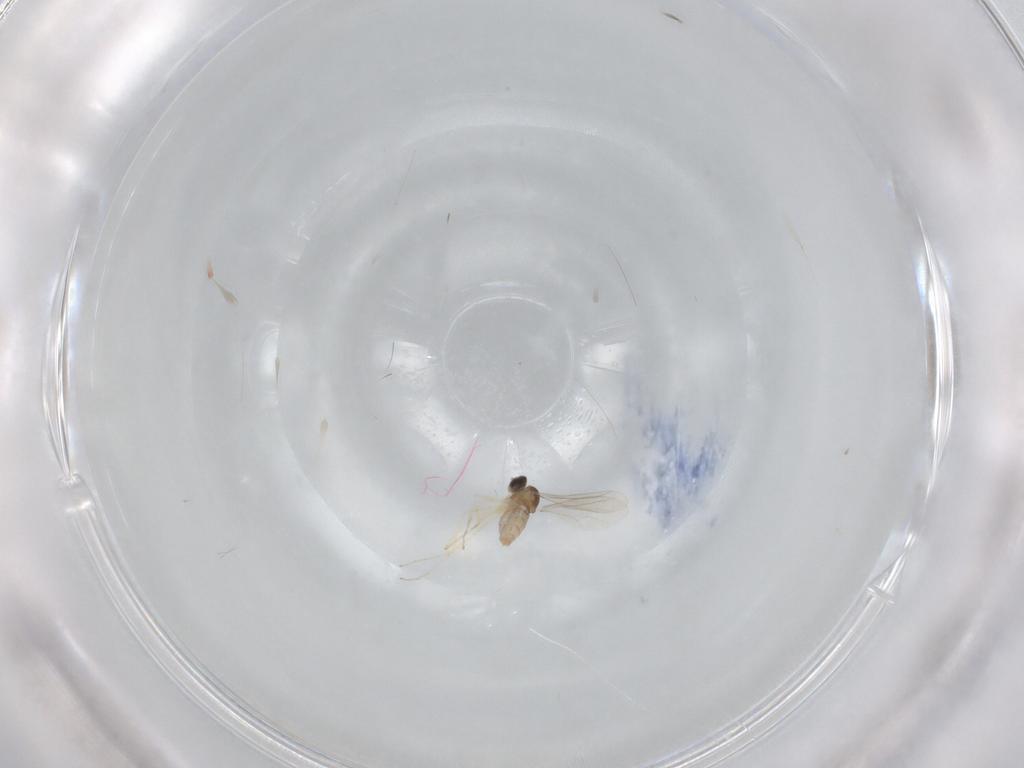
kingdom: Animalia
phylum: Arthropoda
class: Insecta
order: Diptera
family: Cecidomyiidae
